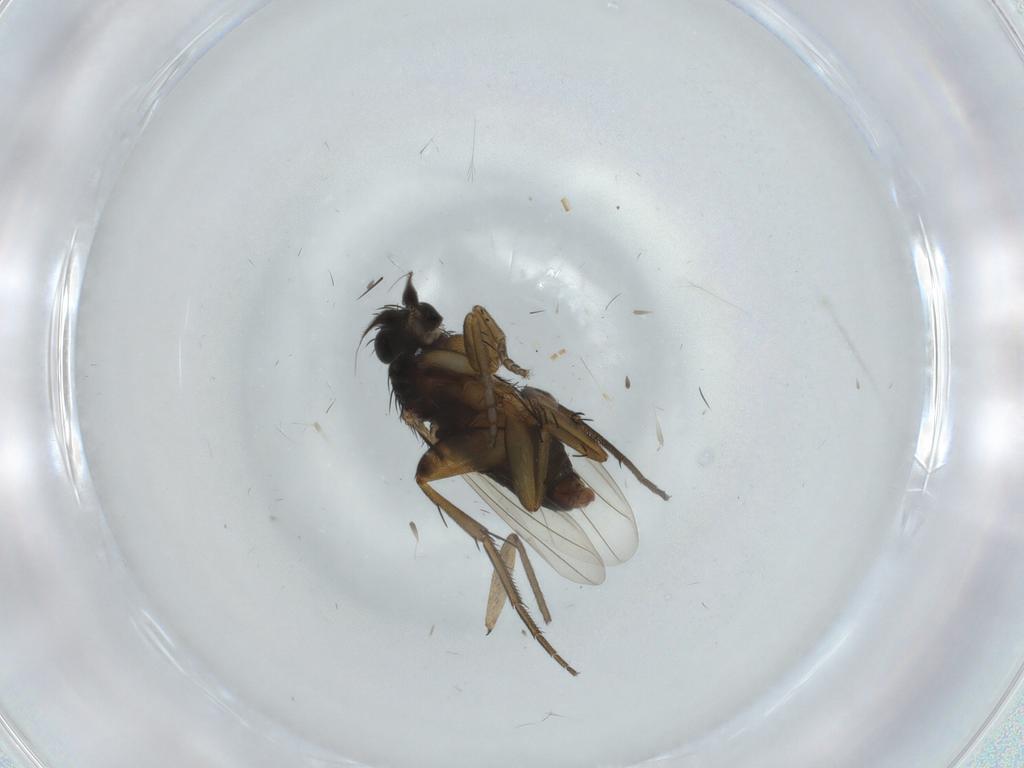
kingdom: Animalia
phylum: Arthropoda
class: Insecta
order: Diptera
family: Phoridae
